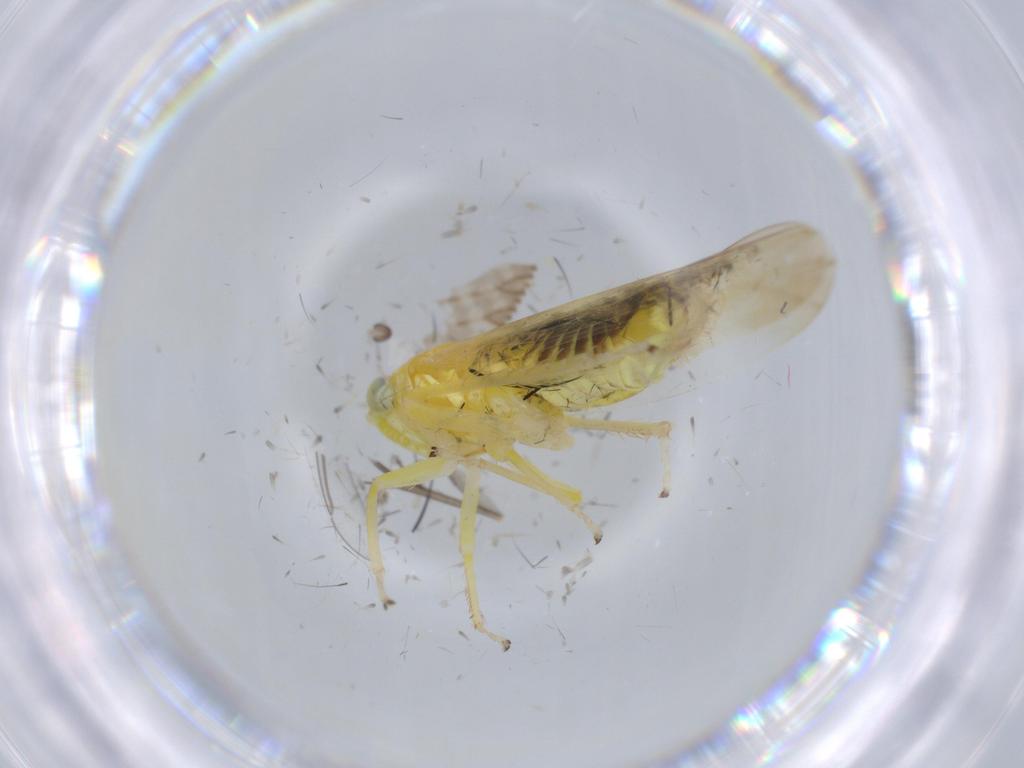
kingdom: Animalia
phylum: Arthropoda
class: Insecta
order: Hemiptera
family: Cicadellidae
